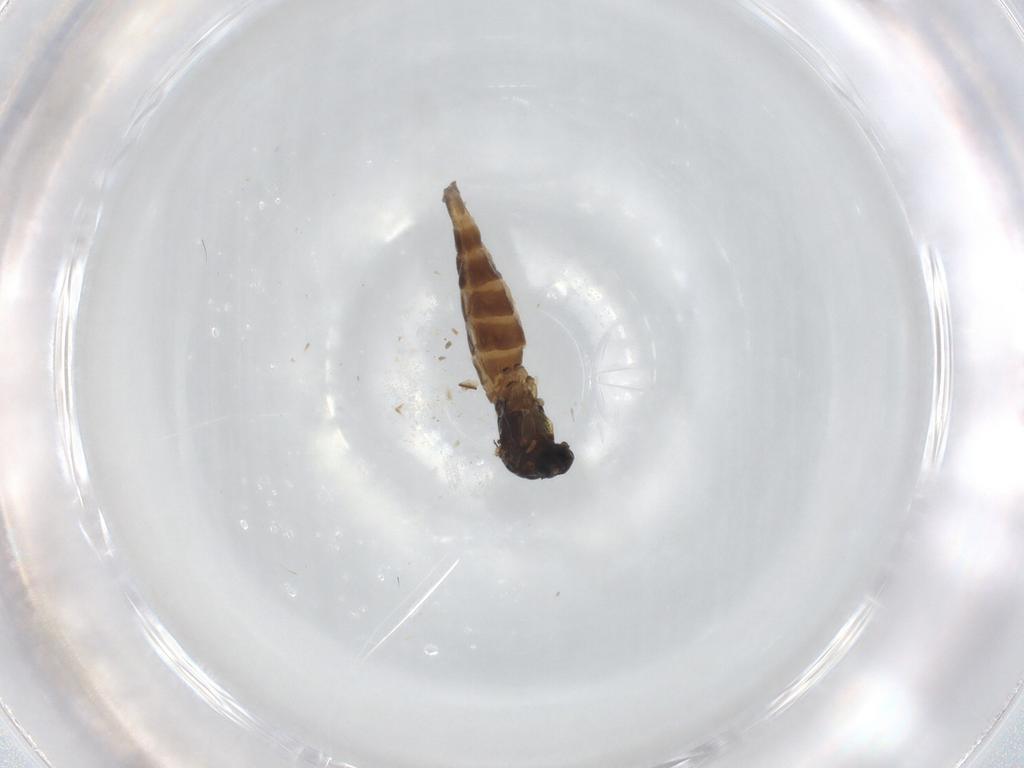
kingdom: Animalia
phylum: Arthropoda
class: Insecta
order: Diptera
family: Sciaridae
